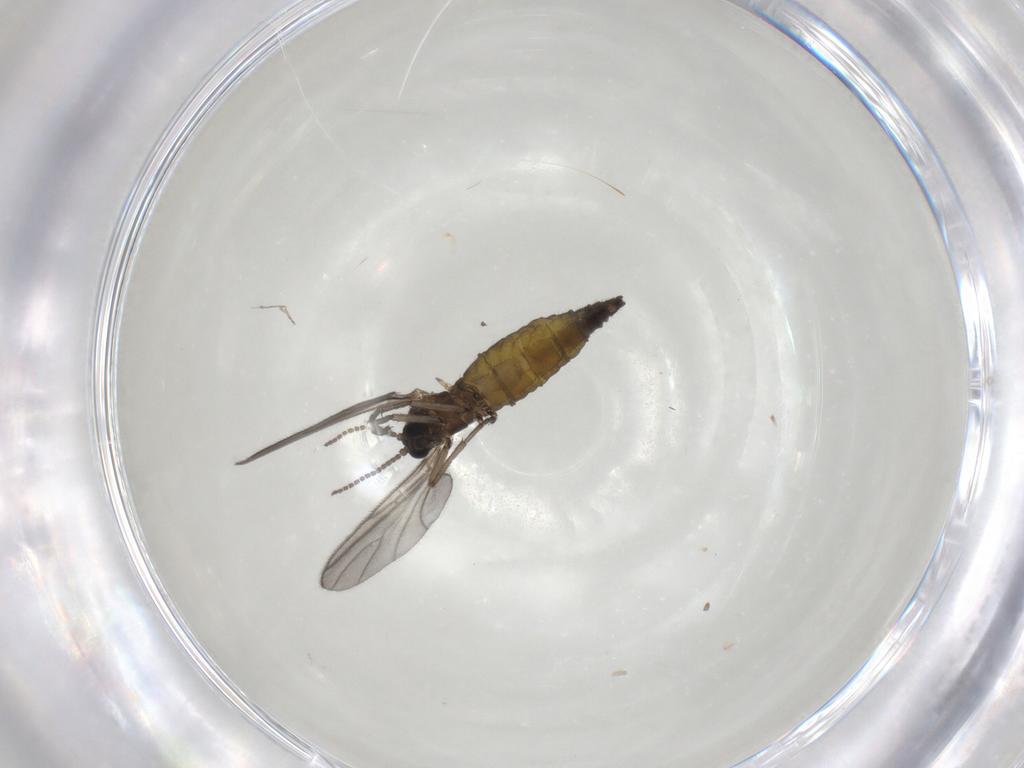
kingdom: Animalia
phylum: Arthropoda
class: Insecta
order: Diptera
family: Sciaridae
